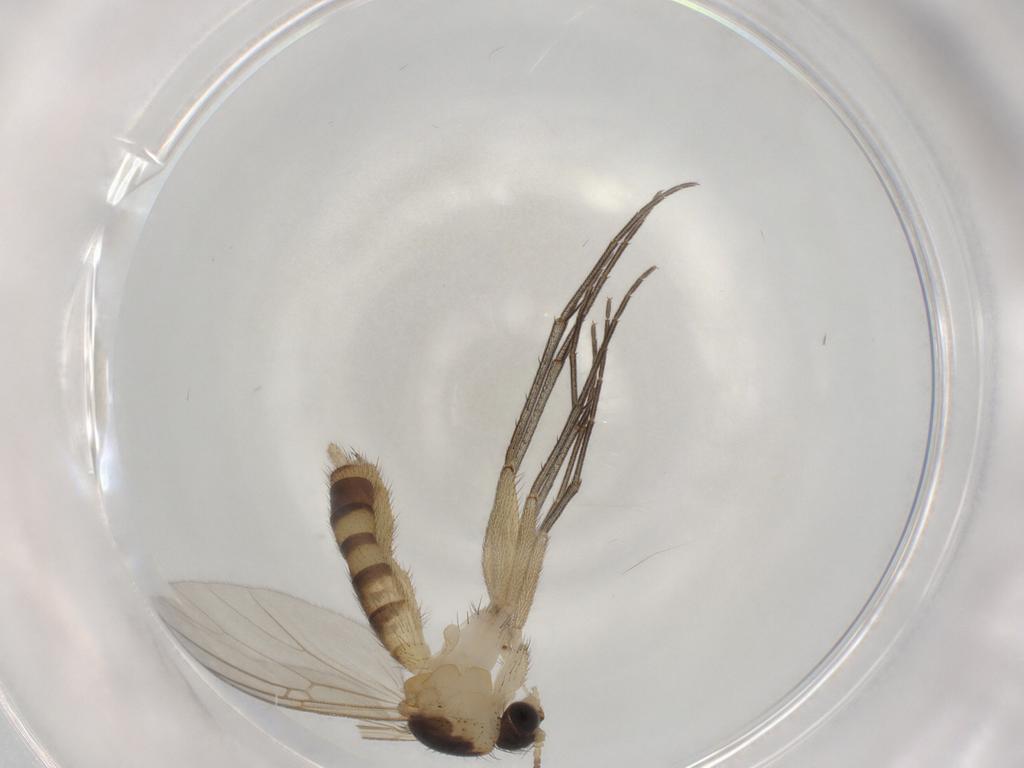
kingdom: Animalia
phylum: Arthropoda
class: Insecta
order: Diptera
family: Mycetophilidae
